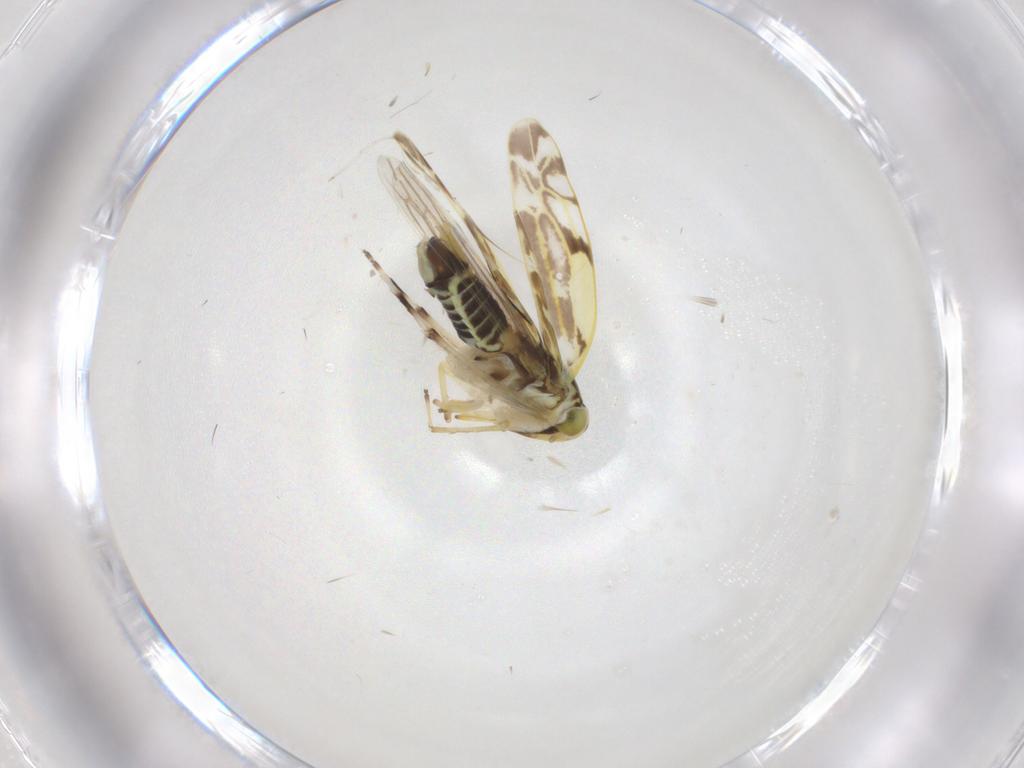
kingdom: Animalia
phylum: Arthropoda
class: Insecta
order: Hemiptera
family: Cicadellidae
